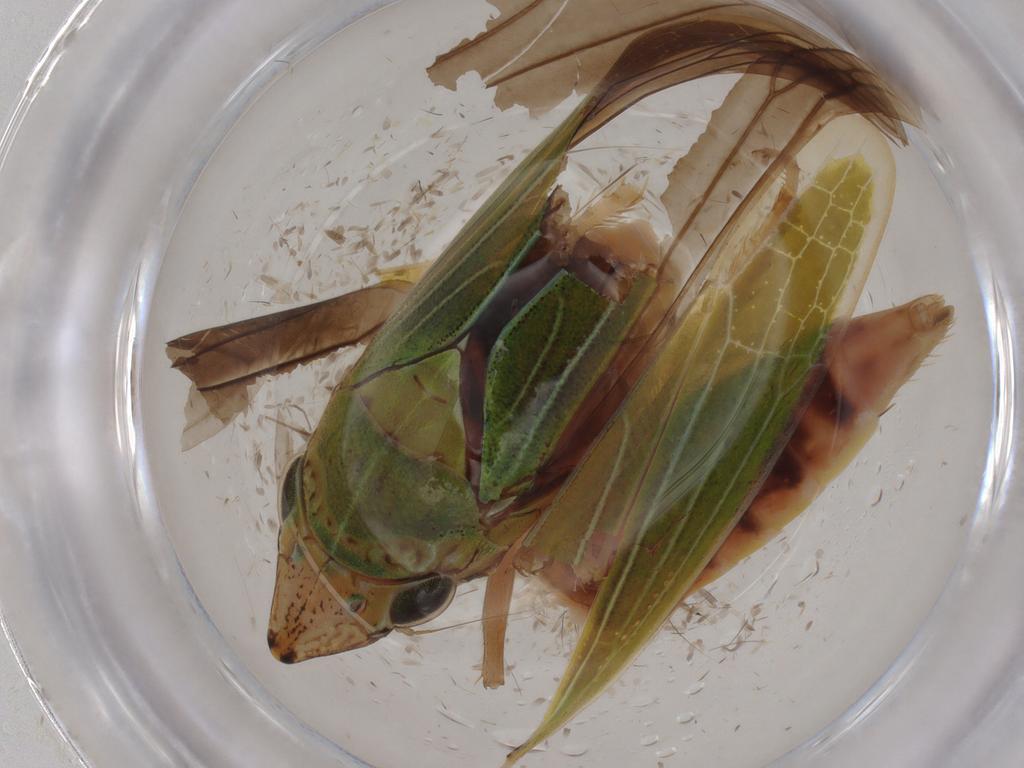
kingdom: Animalia
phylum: Arthropoda
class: Insecta
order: Hemiptera
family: Cicadellidae
